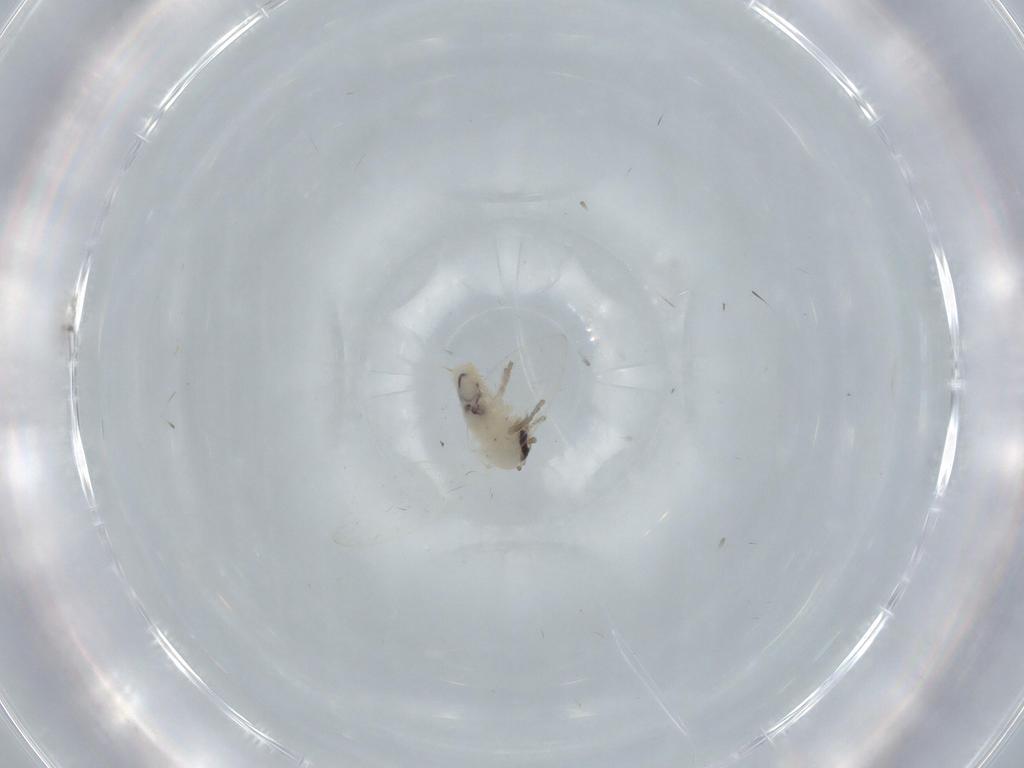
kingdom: Animalia
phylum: Arthropoda
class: Insecta
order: Diptera
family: Psychodidae
